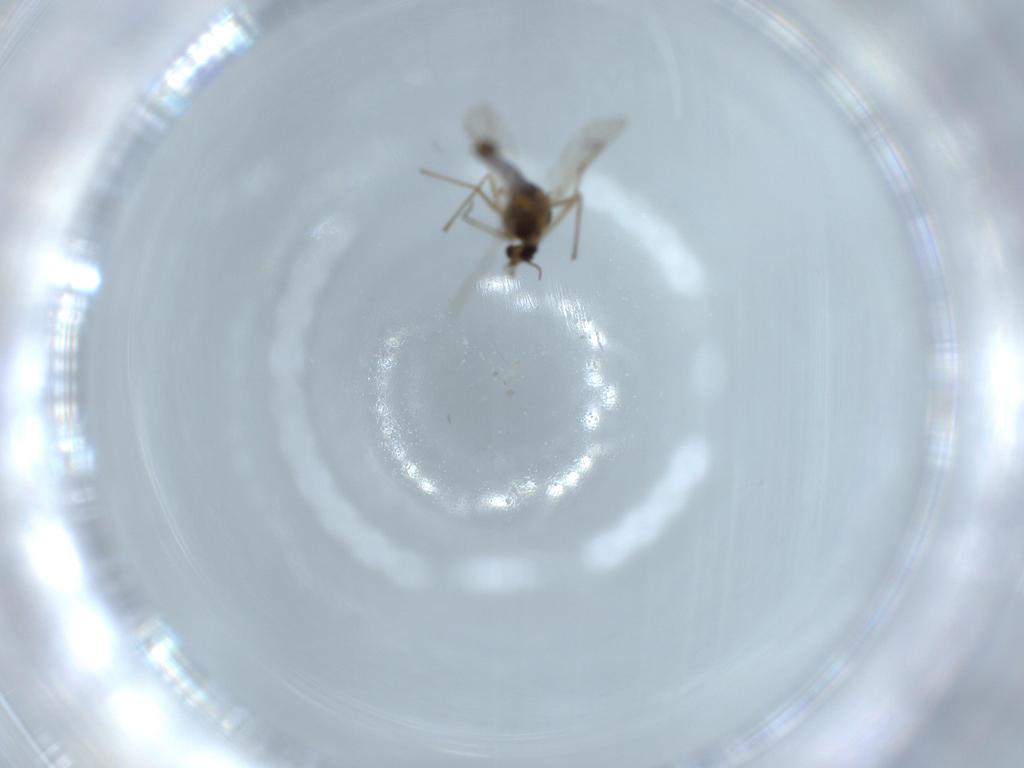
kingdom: Animalia
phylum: Arthropoda
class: Insecta
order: Diptera
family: Chironomidae
